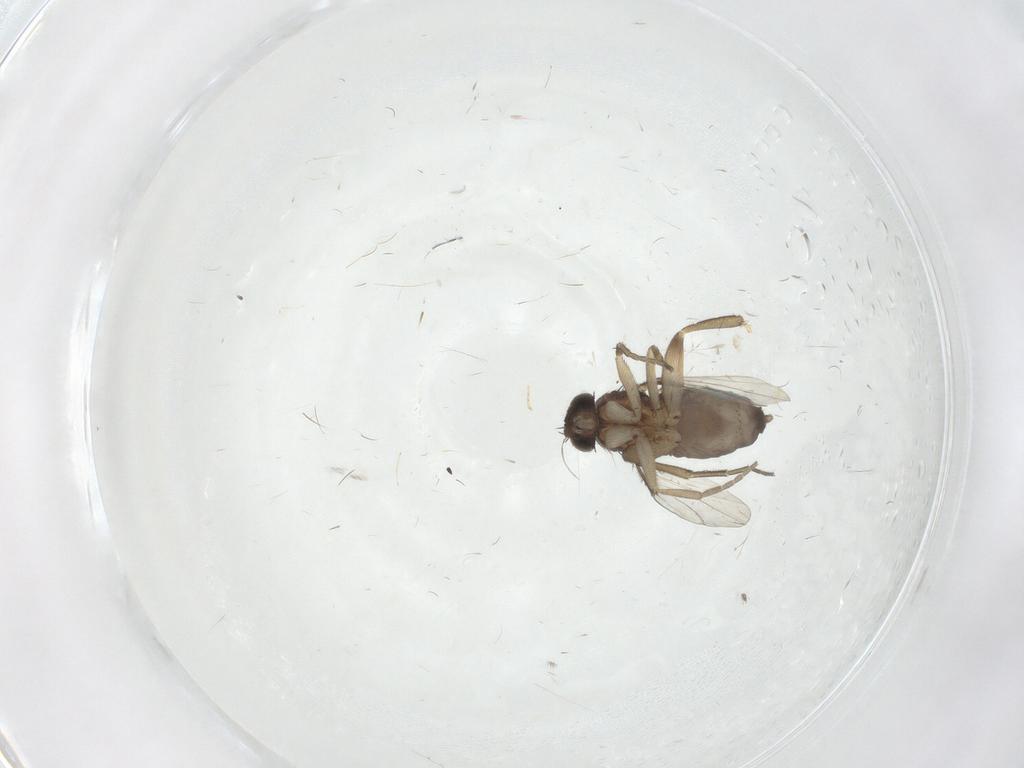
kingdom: Animalia
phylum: Arthropoda
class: Insecta
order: Diptera
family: Phoridae
